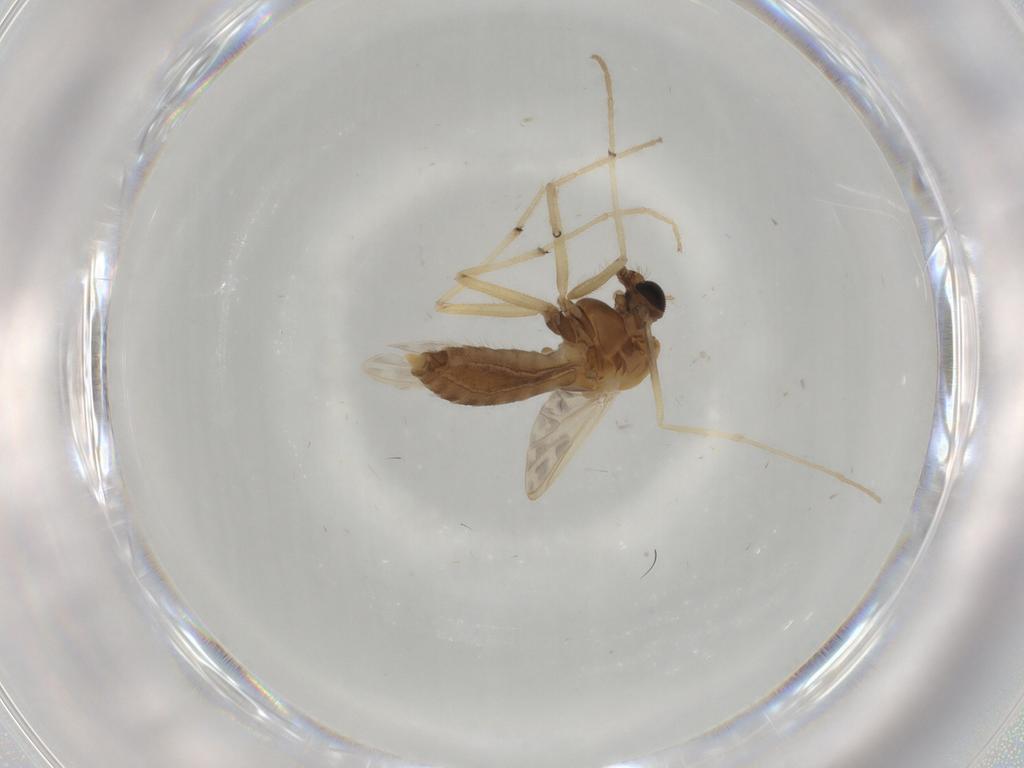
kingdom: Animalia
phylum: Arthropoda
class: Insecta
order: Diptera
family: Chironomidae
